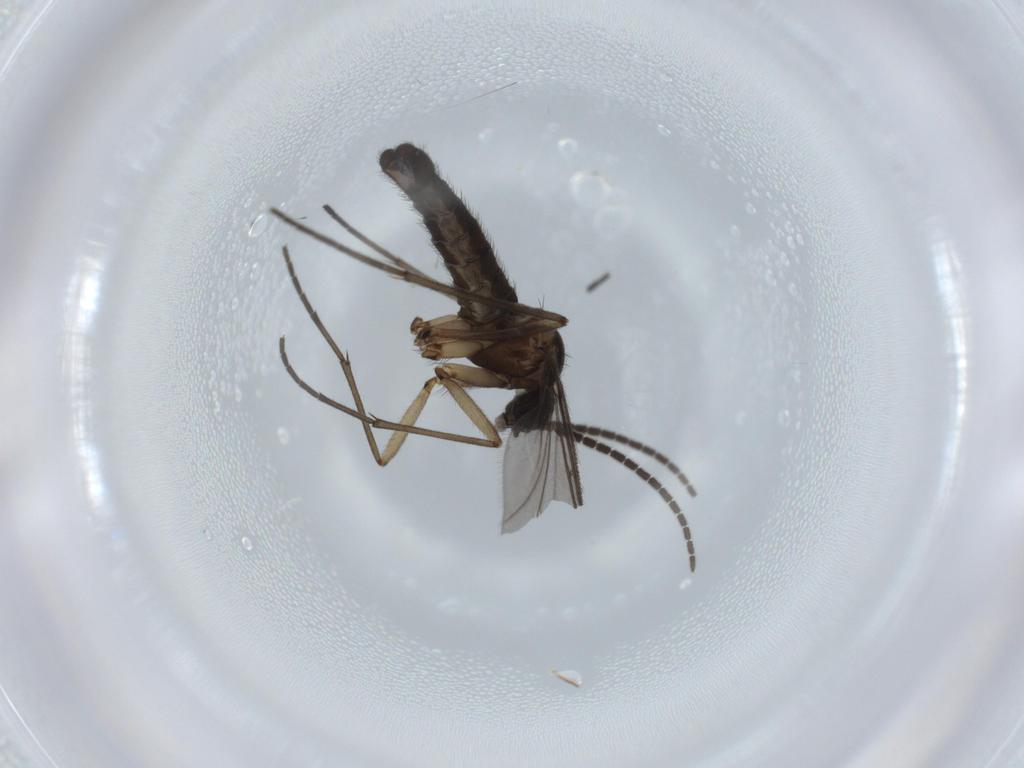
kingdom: Animalia
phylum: Arthropoda
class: Insecta
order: Diptera
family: Sciaridae
